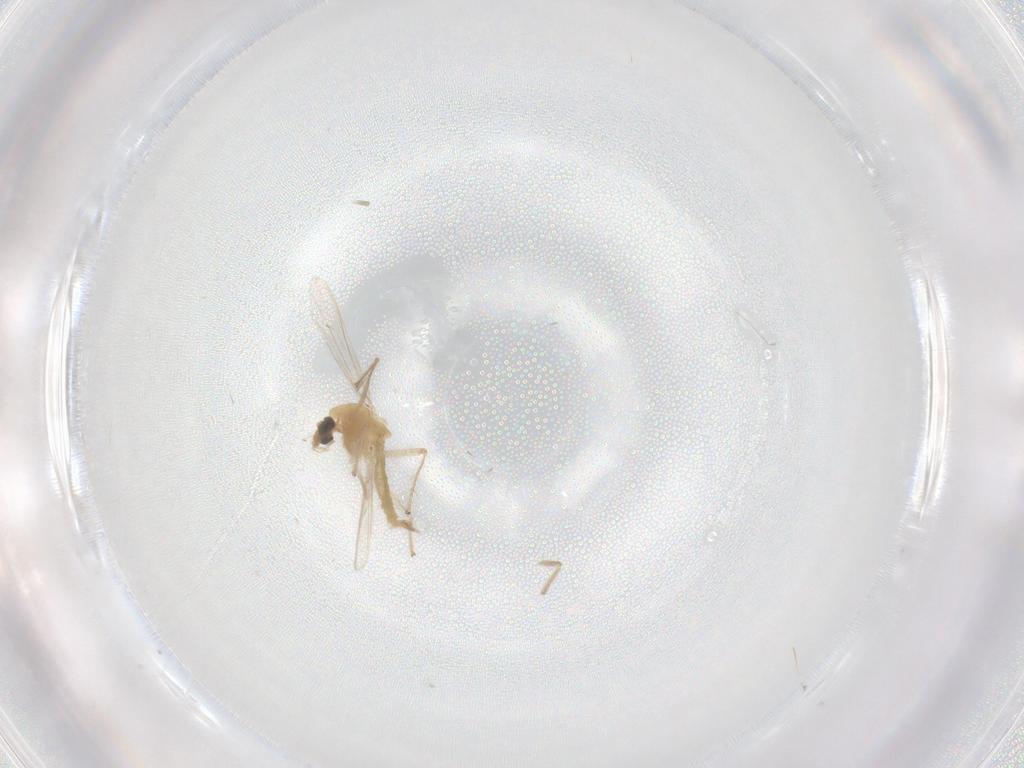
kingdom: Animalia
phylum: Arthropoda
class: Insecta
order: Diptera
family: Chironomidae
